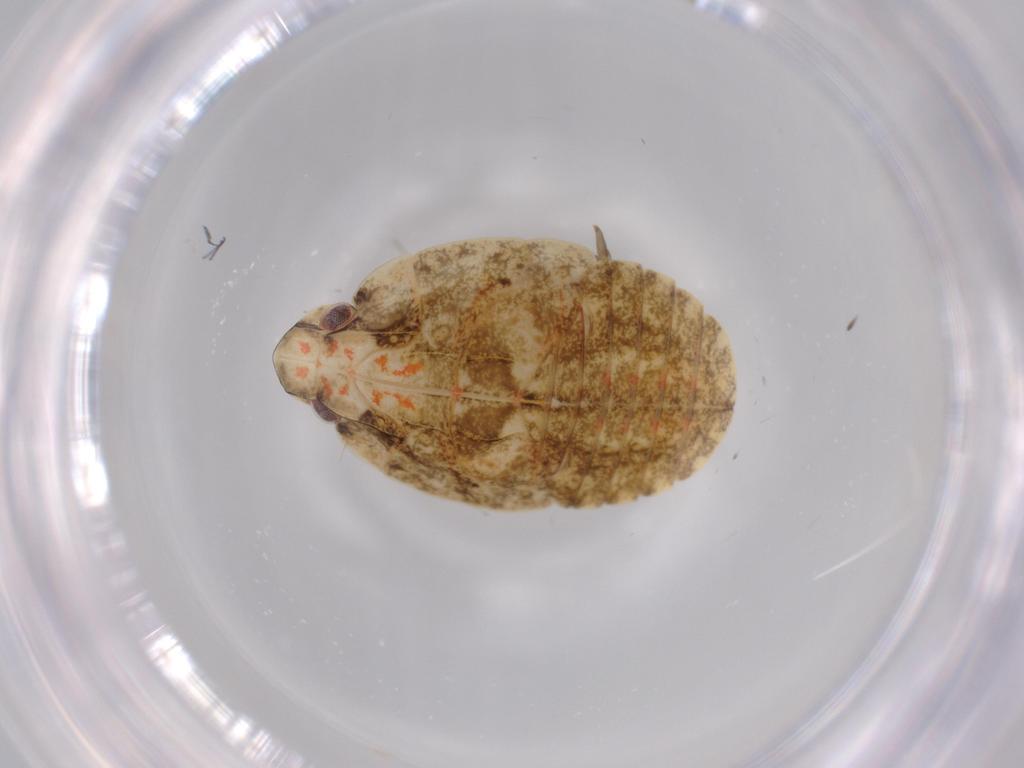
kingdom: Animalia
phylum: Arthropoda
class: Insecta
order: Hemiptera
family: Flatidae
